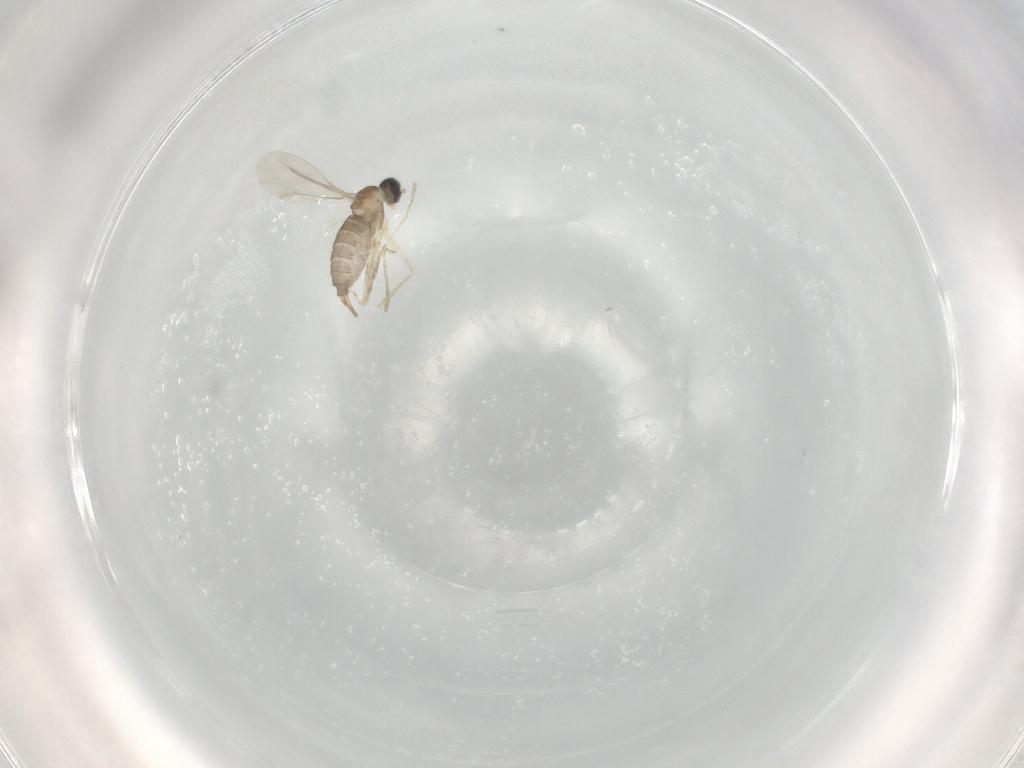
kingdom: Animalia
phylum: Arthropoda
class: Insecta
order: Diptera
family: Cecidomyiidae
